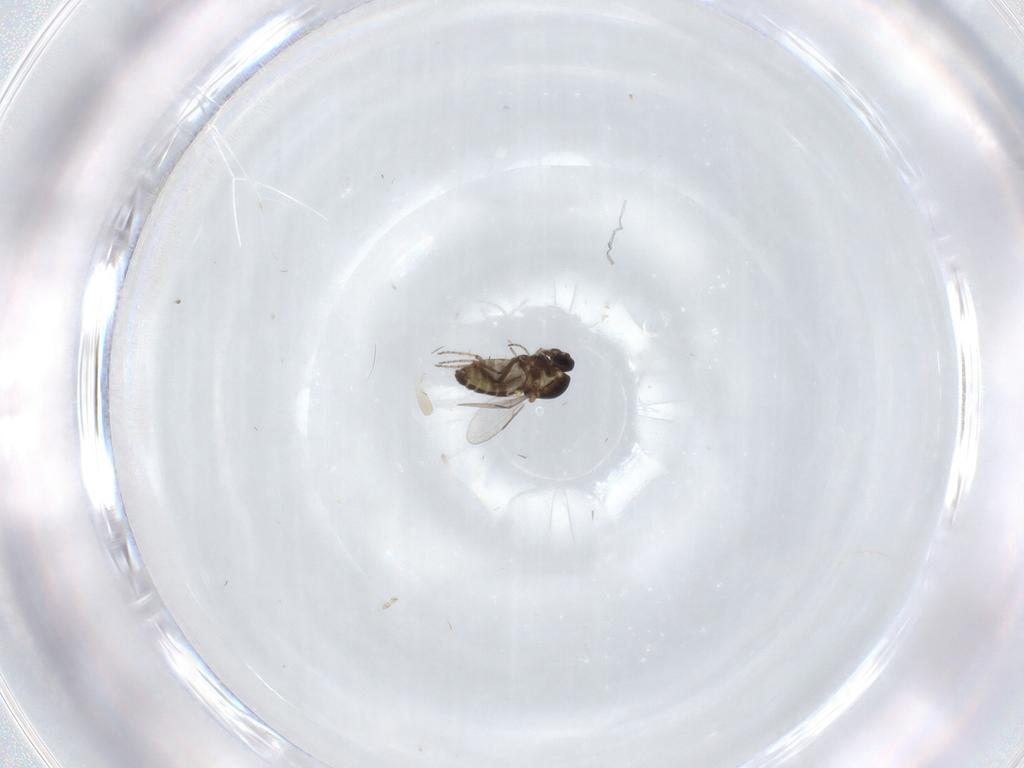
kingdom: Animalia
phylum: Arthropoda
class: Insecta
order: Diptera
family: Ceratopogonidae
